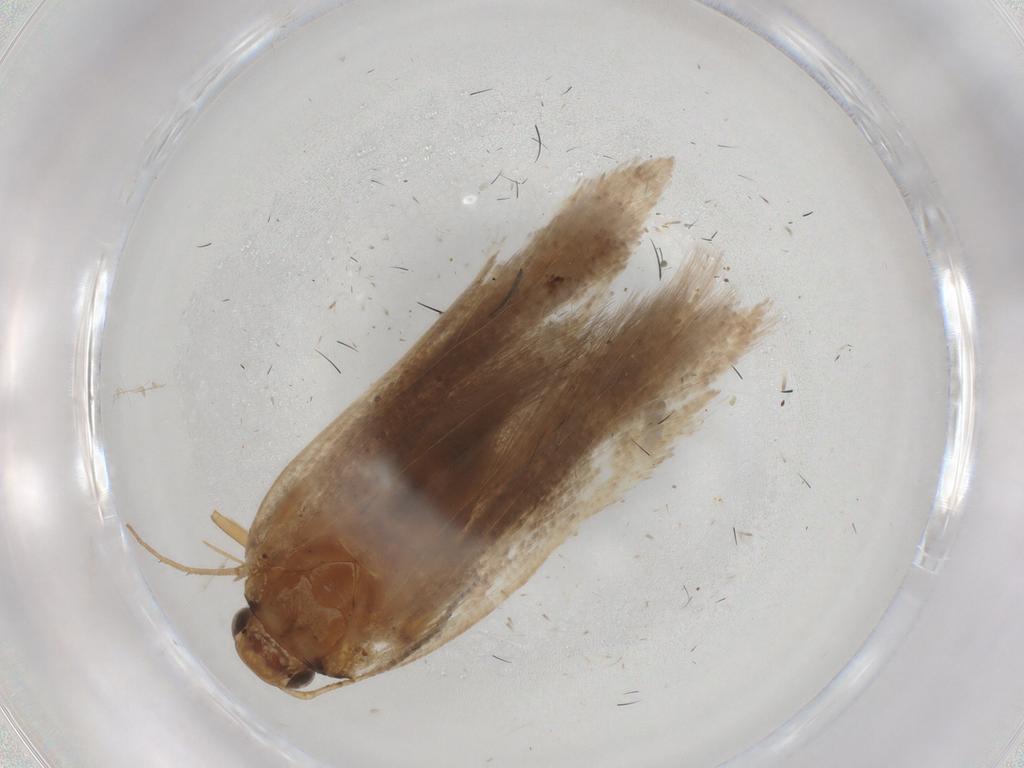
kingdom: Animalia
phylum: Arthropoda
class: Insecta
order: Lepidoptera
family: Gelechiidae
